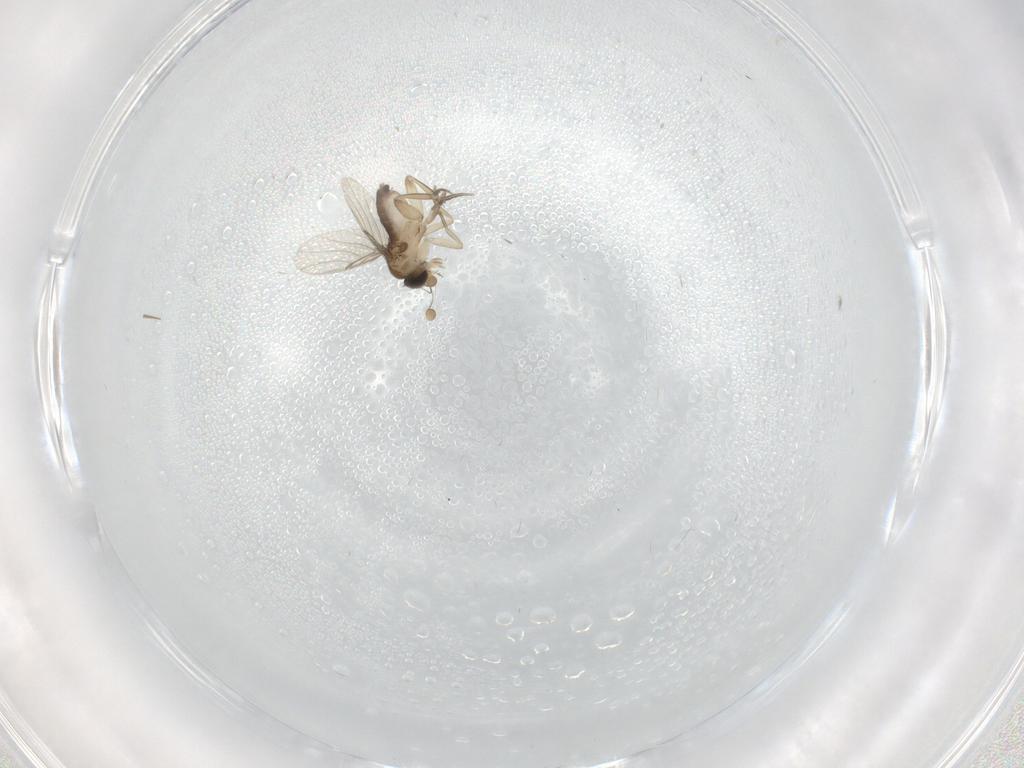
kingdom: Animalia
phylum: Arthropoda
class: Insecta
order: Diptera
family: Phoridae
